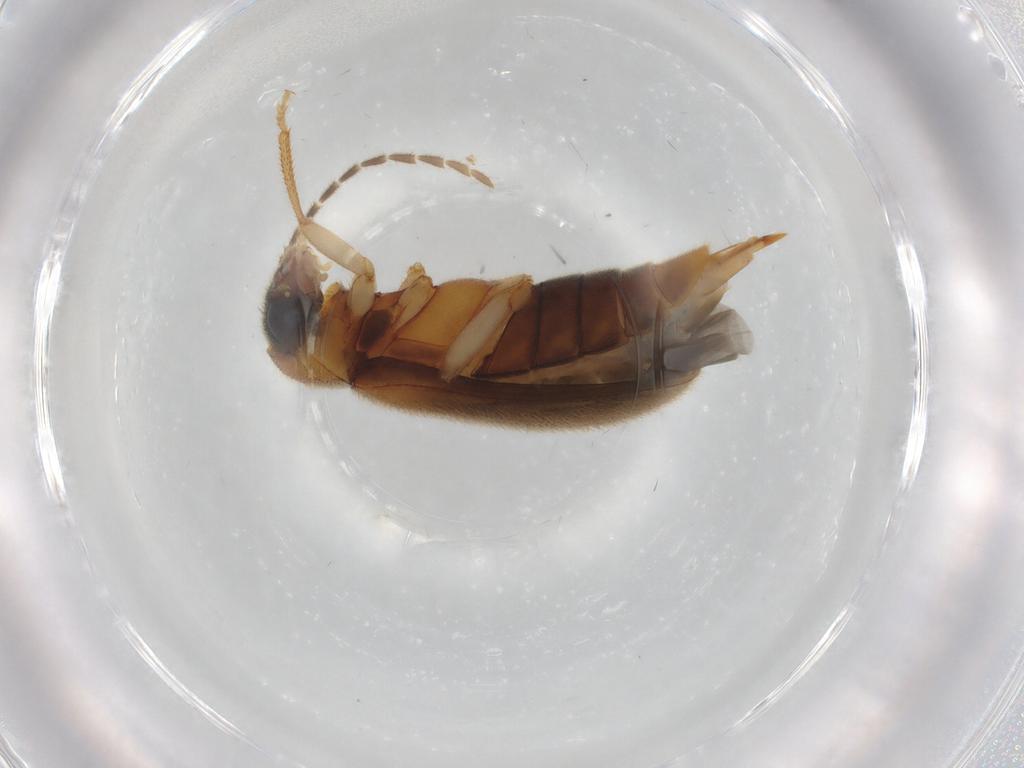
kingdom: Animalia
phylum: Arthropoda
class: Insecta
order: Coleoptera
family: Ptilodactylidae
